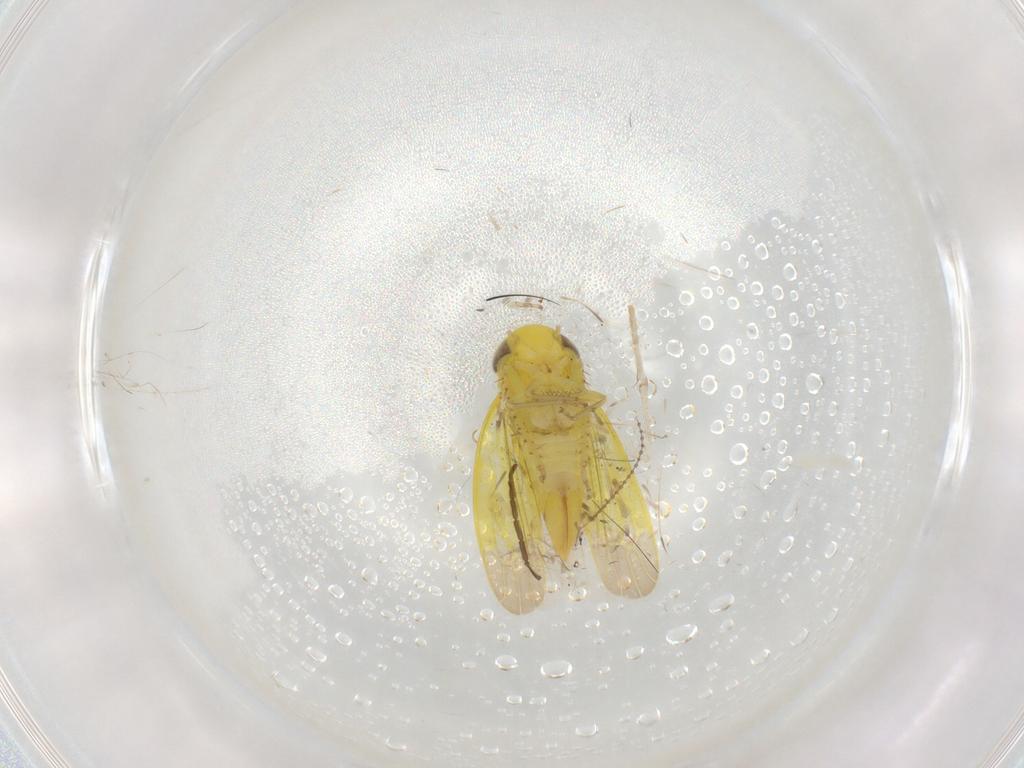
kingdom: Animalia
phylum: Arthropoda
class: Insecta
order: Hemiptera
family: Cicadellidae
